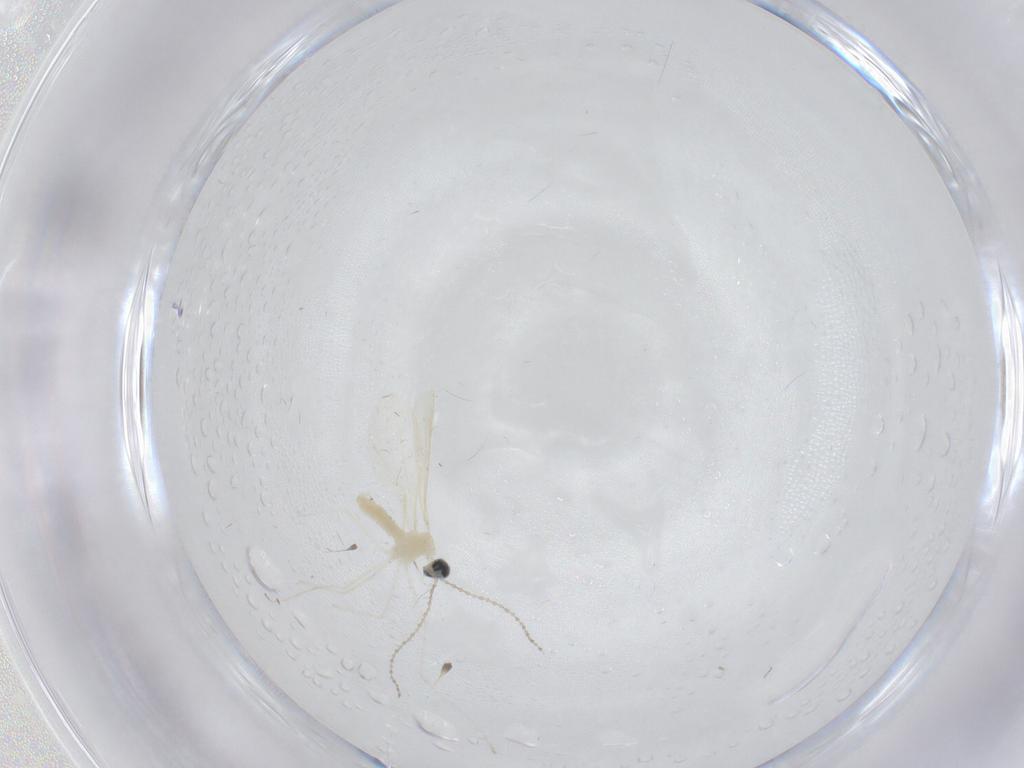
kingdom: Animalia
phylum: Arthropoda
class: Insecta
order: Diptera
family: Cecidomyiidae
